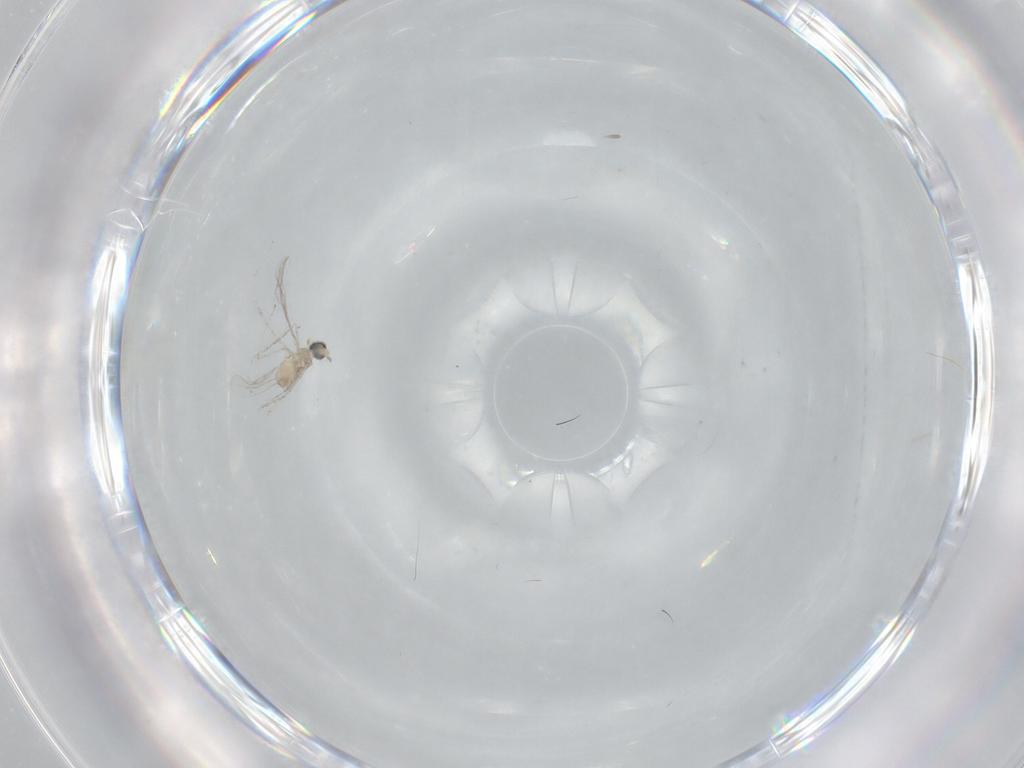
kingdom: Animalia
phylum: Arthropoda
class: Insecta
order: Diptera
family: Cecidomyiidae
